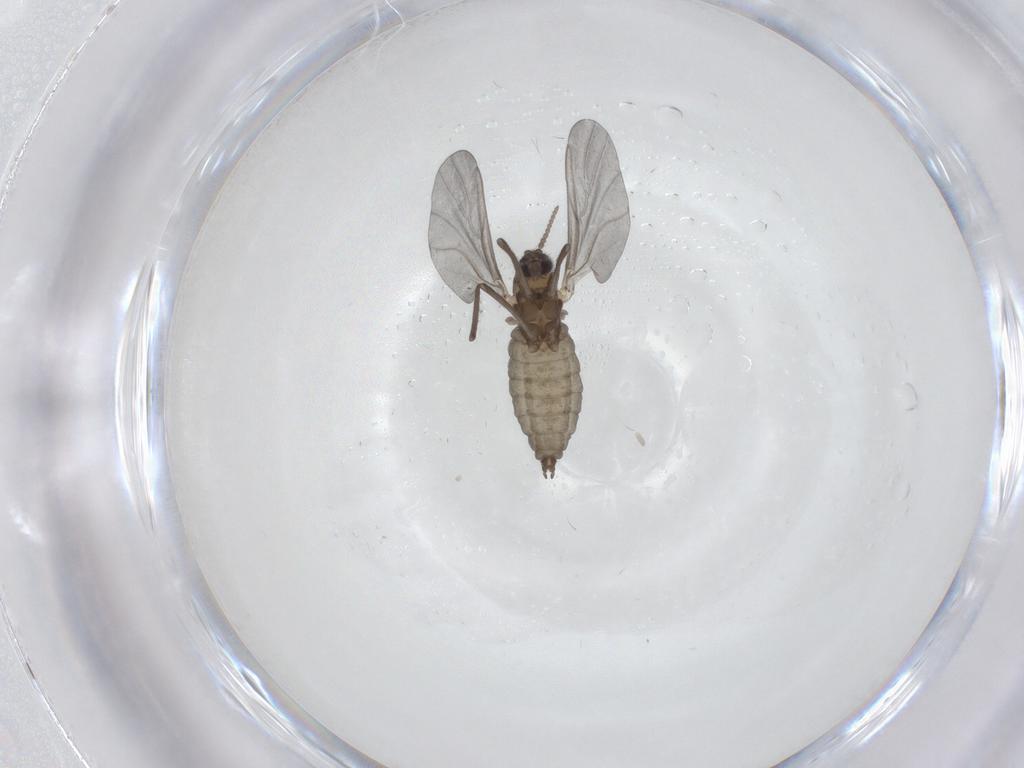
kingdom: Animalia
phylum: Arthropoda
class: Insecta
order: Diptera
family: Cecidomyiidae
